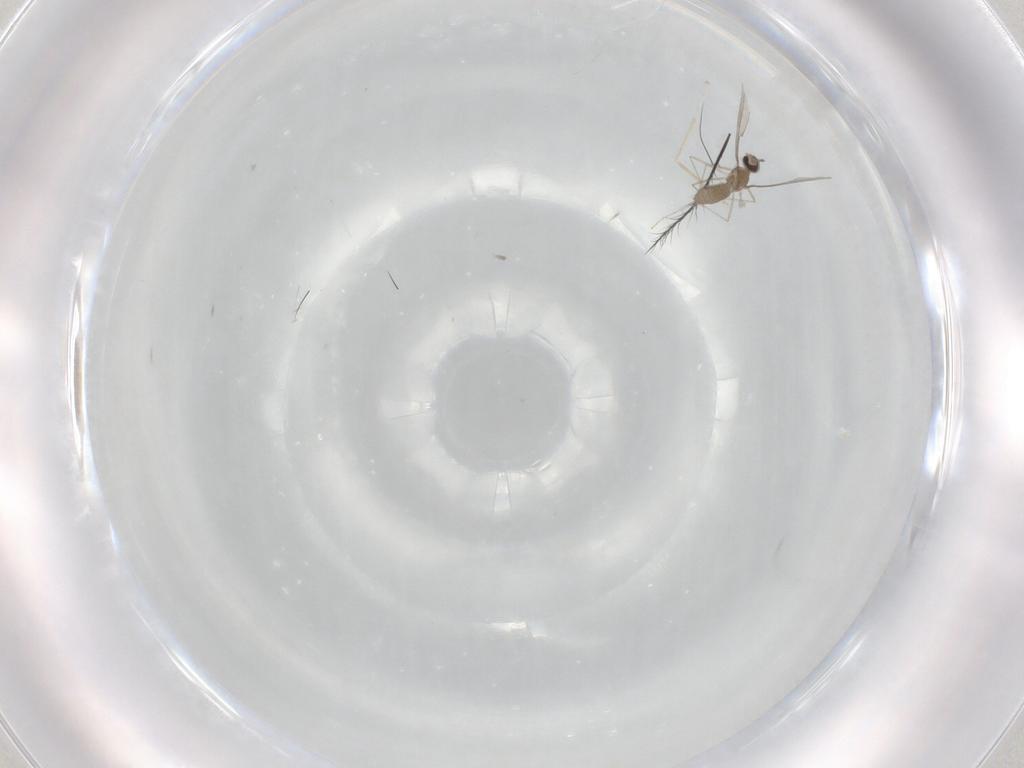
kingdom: Animalia
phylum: Arthropoda
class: Insecta
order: Diptera
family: Cecidomyiidae
